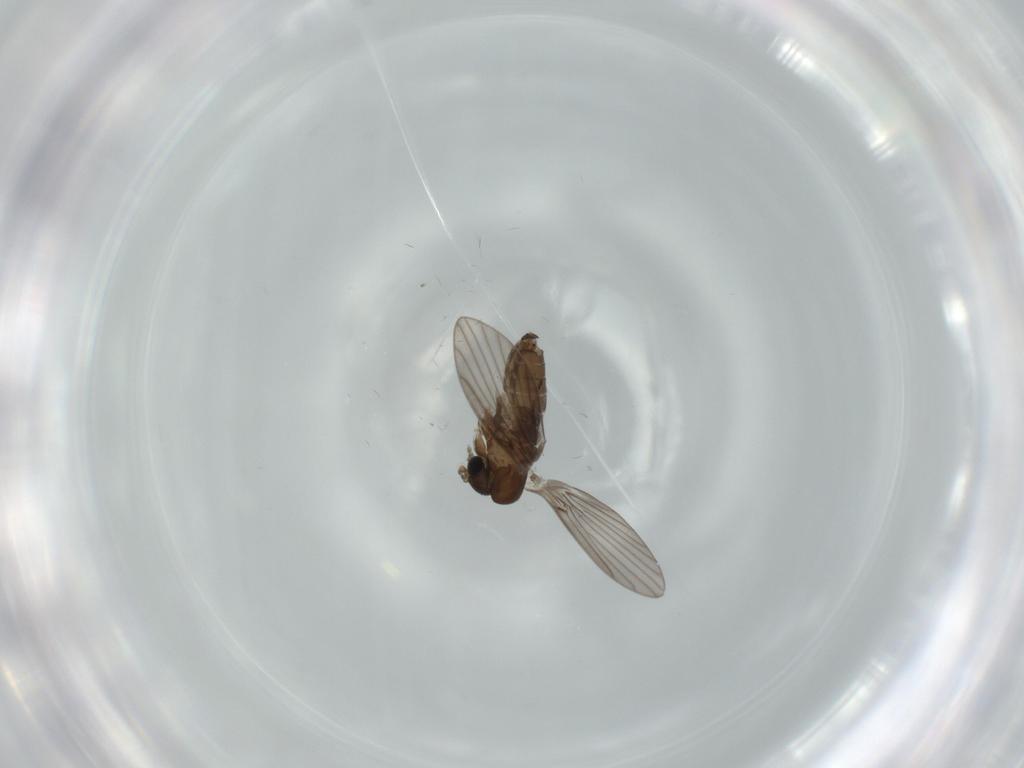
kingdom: Animalia
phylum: Arthropoda
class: Insecta
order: Diptera
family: Psychodidae
